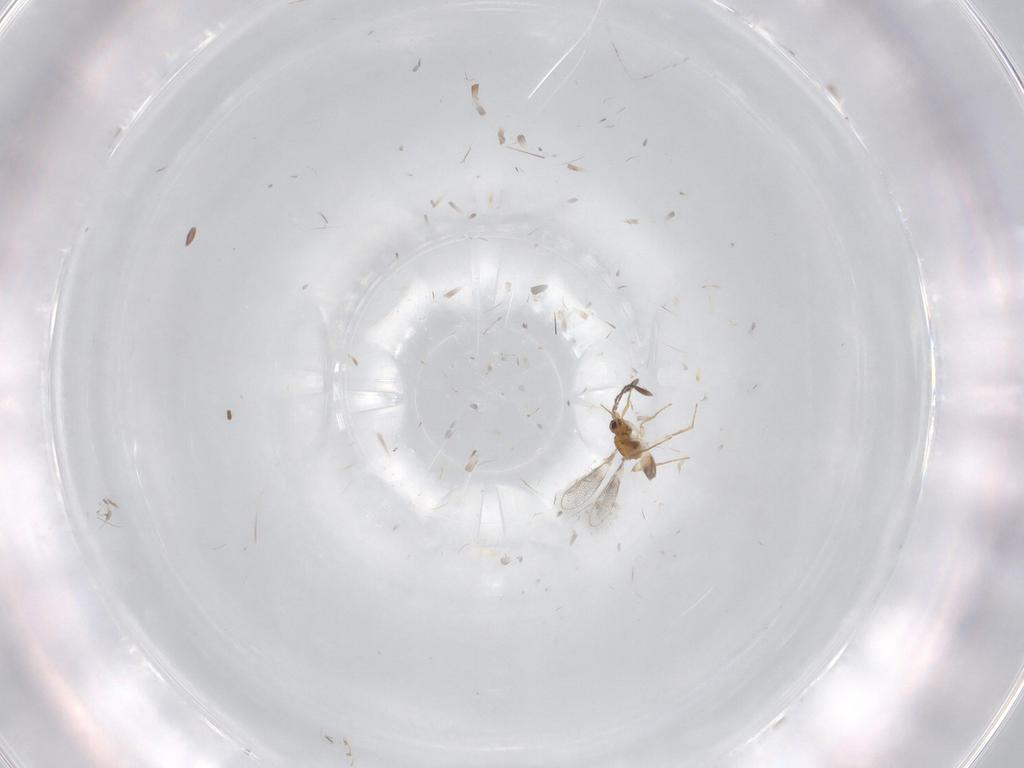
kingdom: Animalia
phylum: Arthropoda
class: Insecta
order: Hymenoptera
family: Mymaridae
